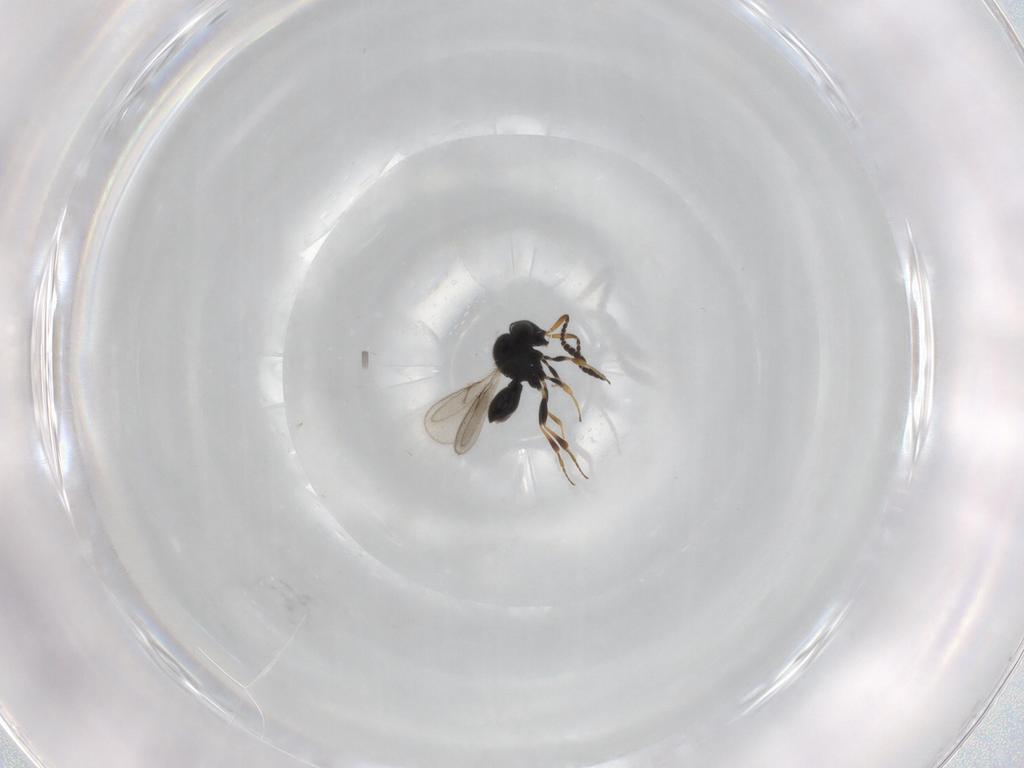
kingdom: Animalia
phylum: Arthropoda
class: Insecta
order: Hymenoptera
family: Scelionidae
